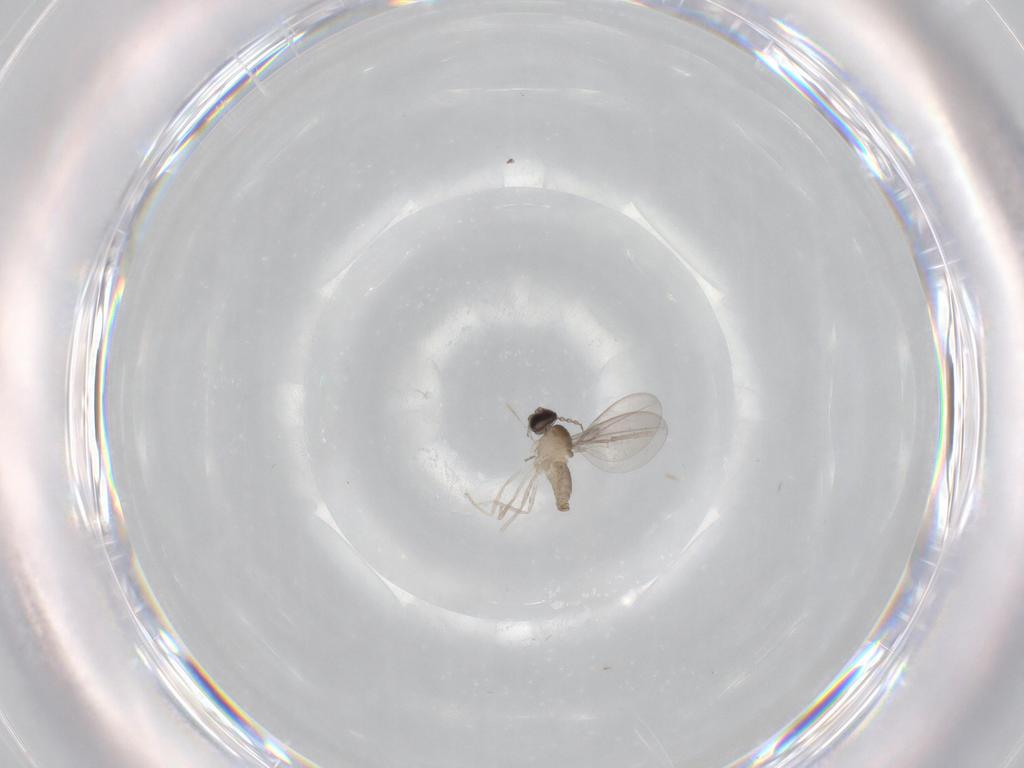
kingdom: Animalia
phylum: Arthropoda
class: Insecta
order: Diptera
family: Cecidomyiidae
